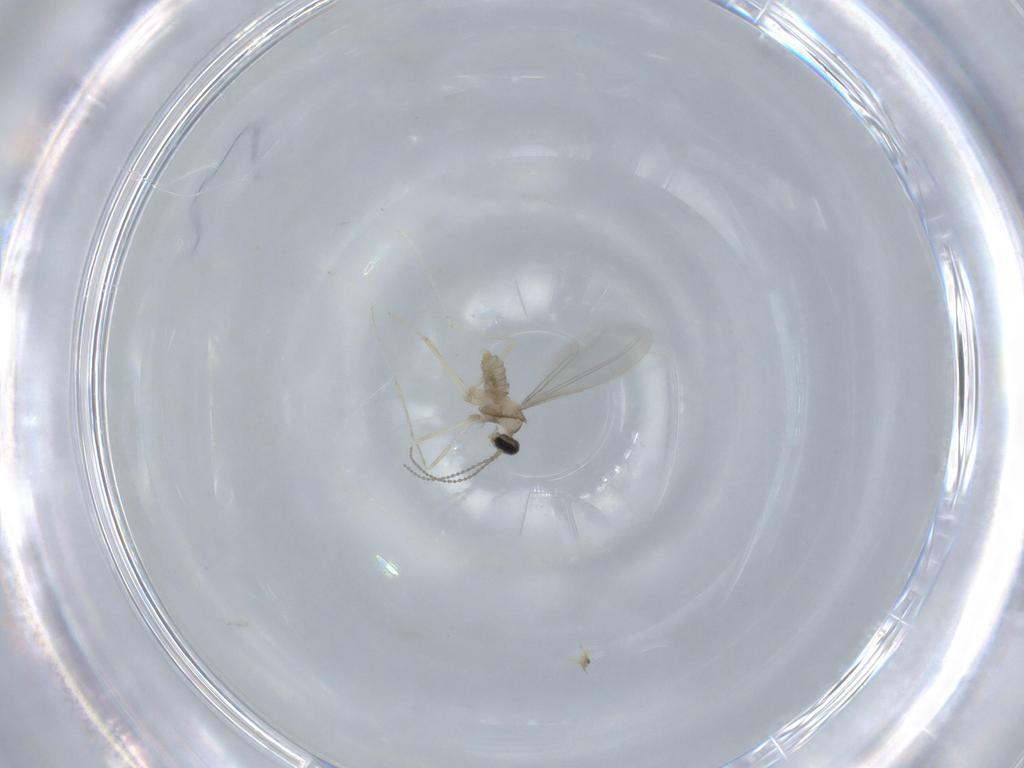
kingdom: Animalia
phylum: Arthropoda
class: Insecta
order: Diptera
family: Cecidomyiidae
